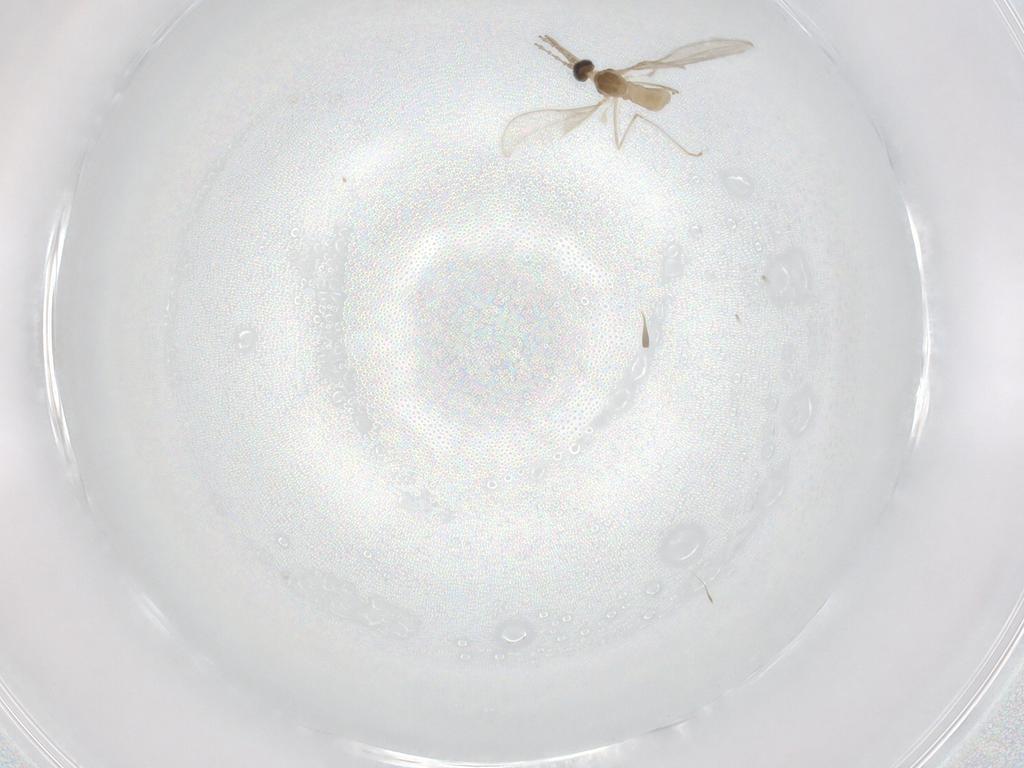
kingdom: Animalia
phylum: Arthropoda
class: Insecta
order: Diptera
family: Cecidomyiidae
